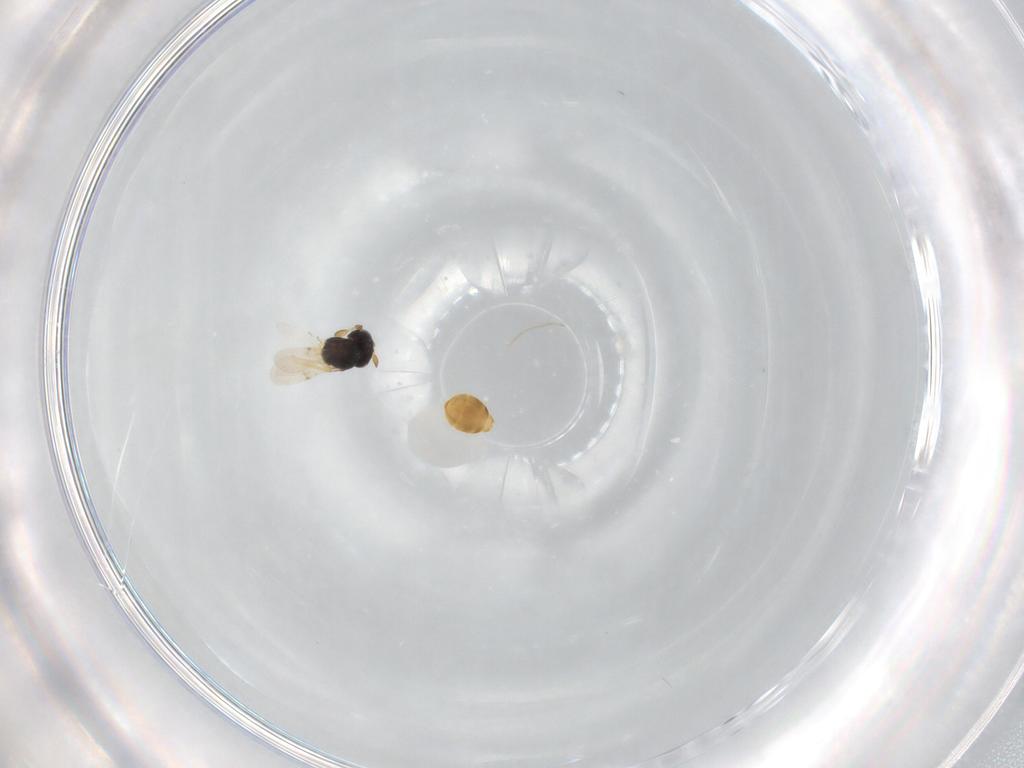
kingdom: Animalia
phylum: Arthropoda
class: Insecta
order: Hymenoptera
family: Scelionidae
